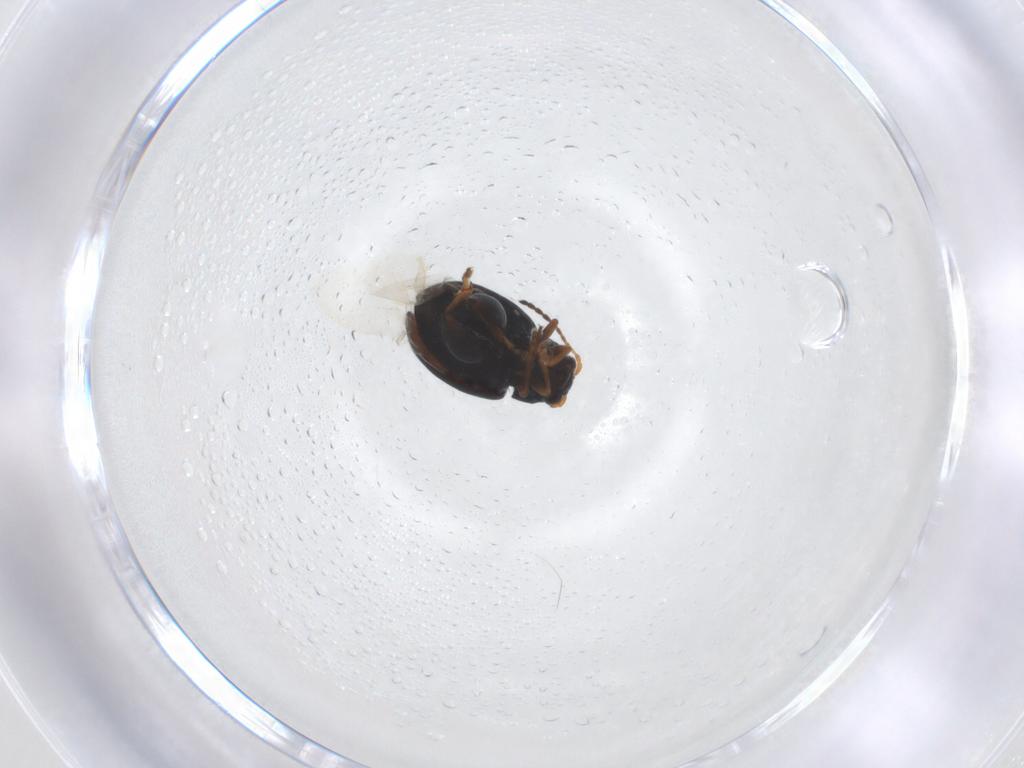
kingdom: Animalia
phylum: Arthropoda
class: Insecta
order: Coleoptera
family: Chrysomelidae
